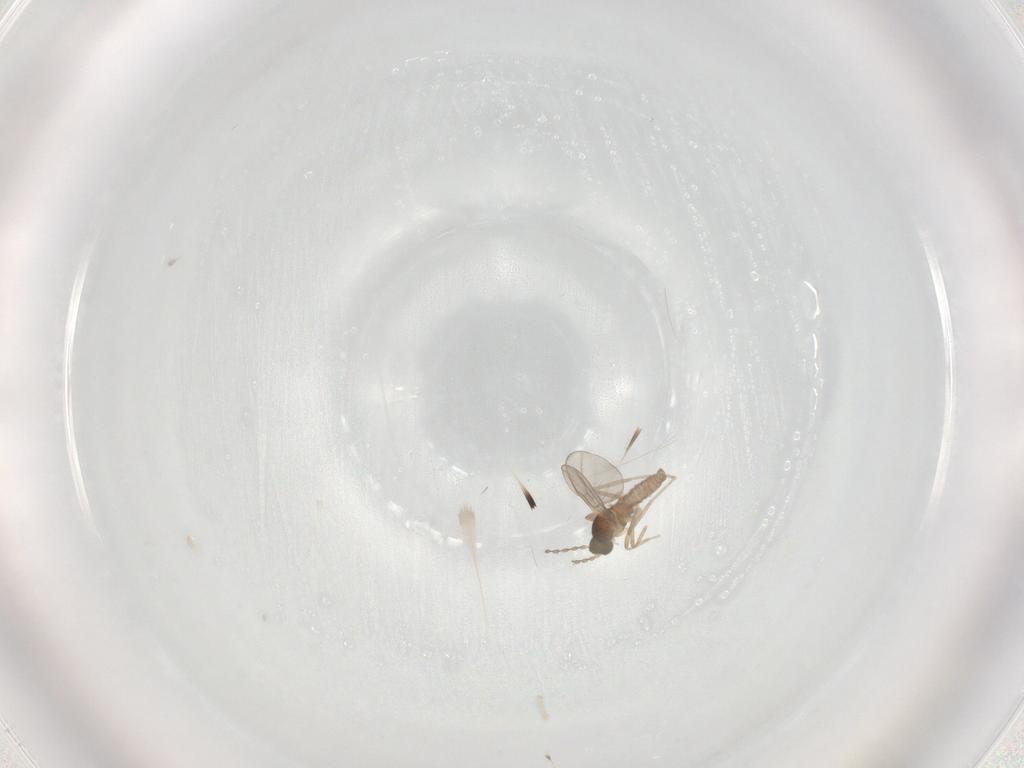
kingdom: Animalia
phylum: Arthropoda
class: Insecta
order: Diptera
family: Cecidomyiidae
